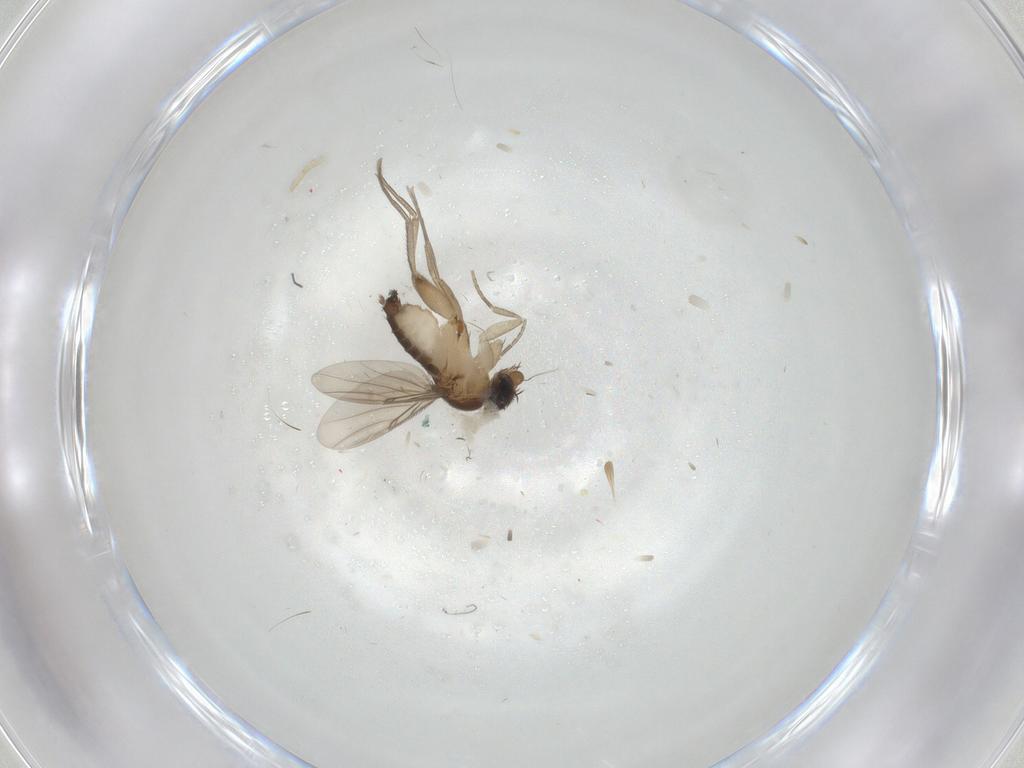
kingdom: Animalia
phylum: Arthropoda
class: Insecta
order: Diptera
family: Phoridae
